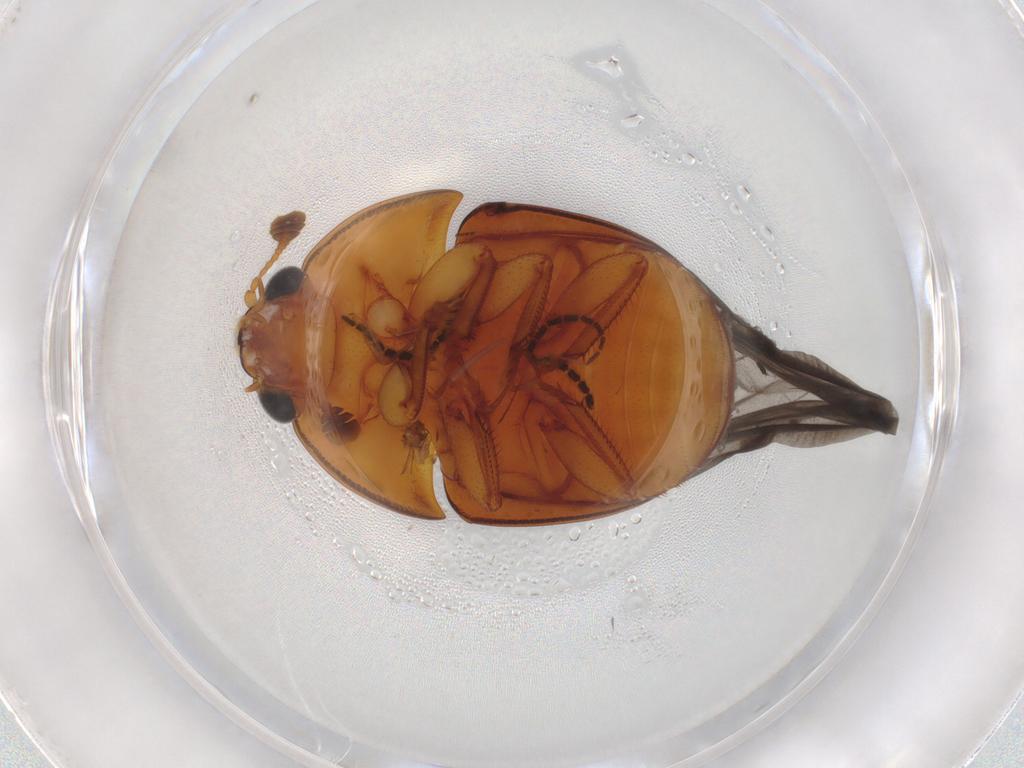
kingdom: Animalia
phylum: Arthropoda
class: Insecta
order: Coleoptera
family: Nitidulidae
